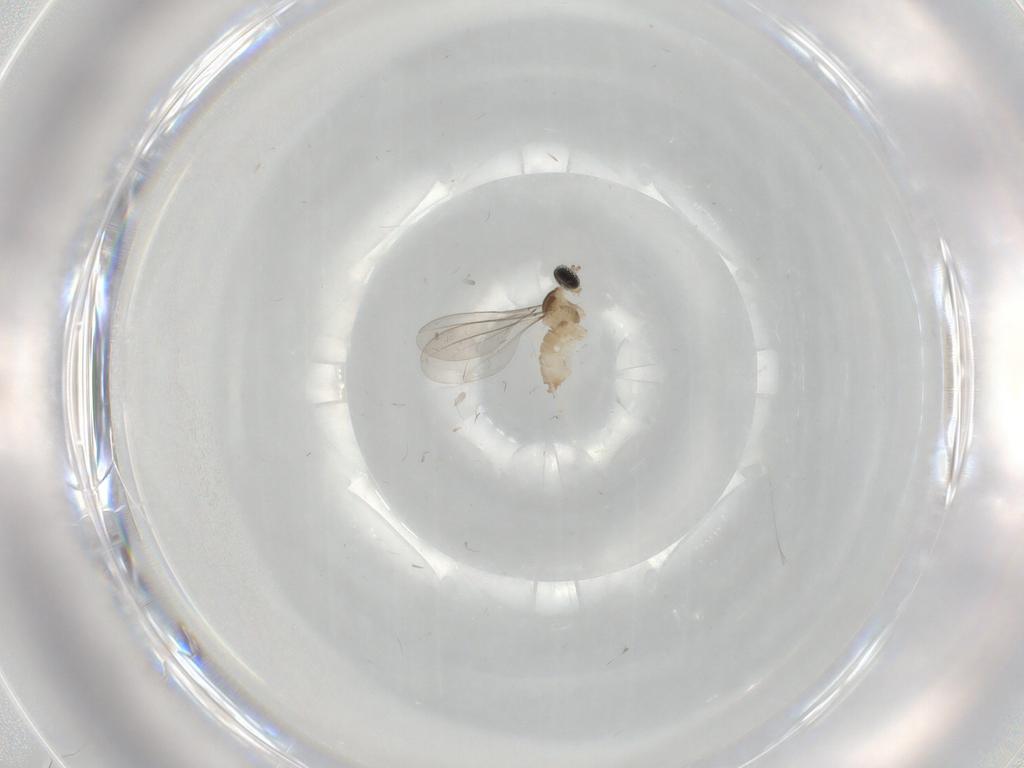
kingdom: Animalia
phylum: Arthropoda
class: Insecta
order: Diptera
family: Cecidomyiidae
